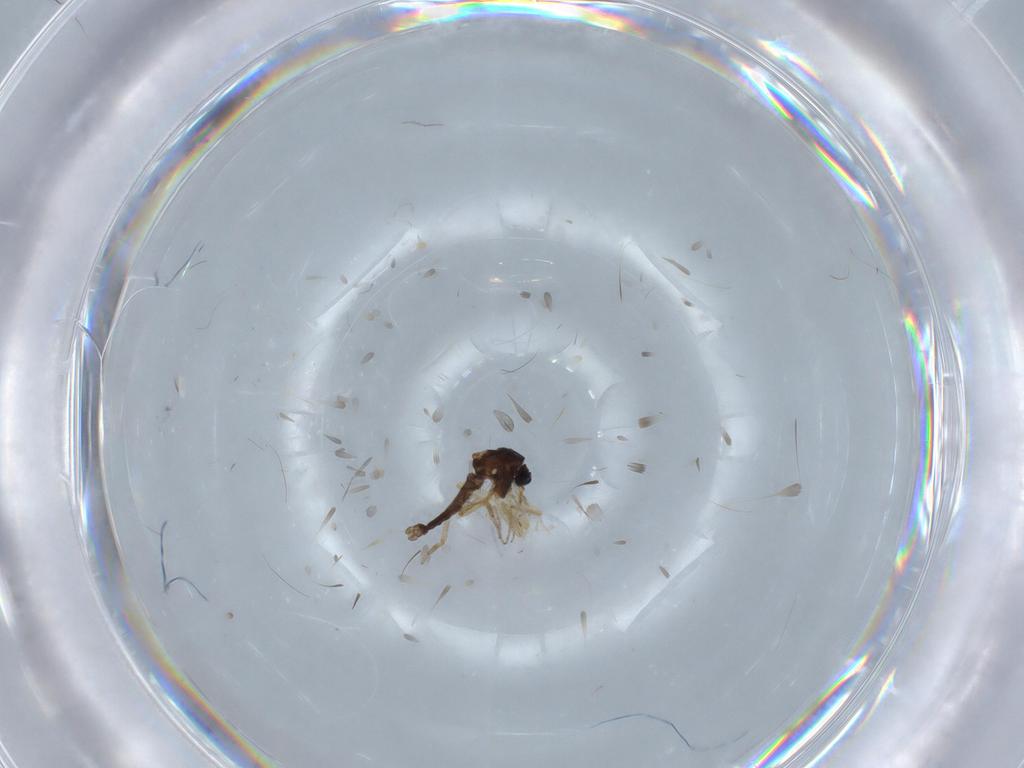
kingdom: Animalia
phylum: Arthropoda
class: Insecta
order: Diptera
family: Ceratopogonidae
